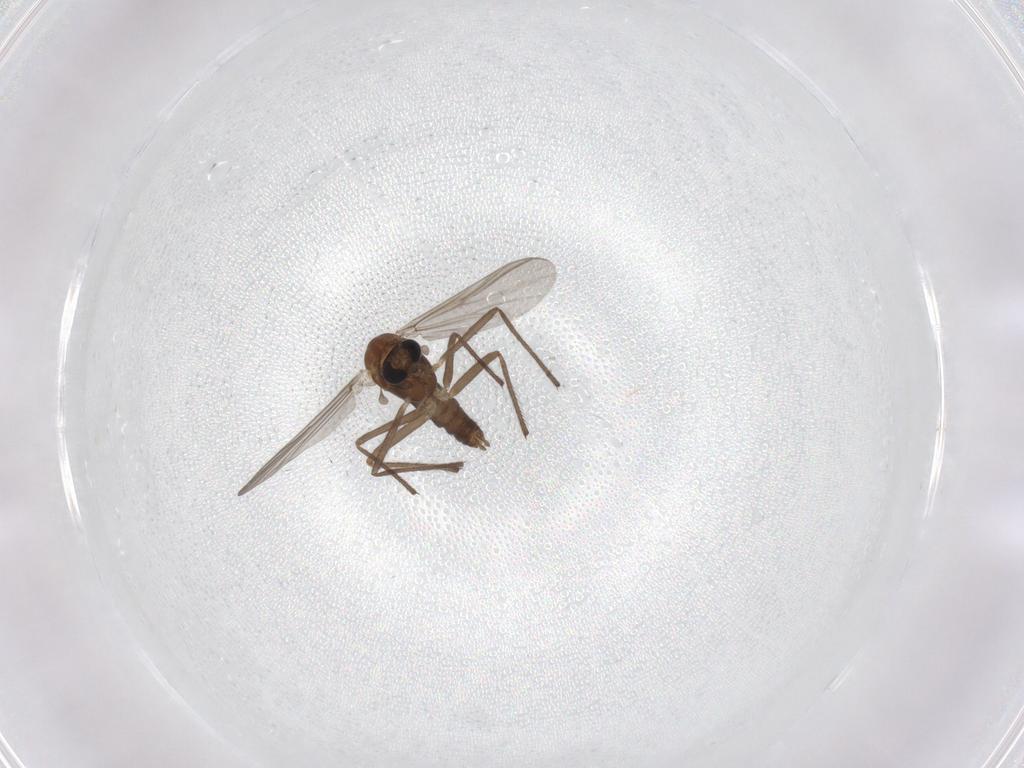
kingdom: Animalia
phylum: Arthropoda
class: Insecta
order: Diptera
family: Chironomidae
